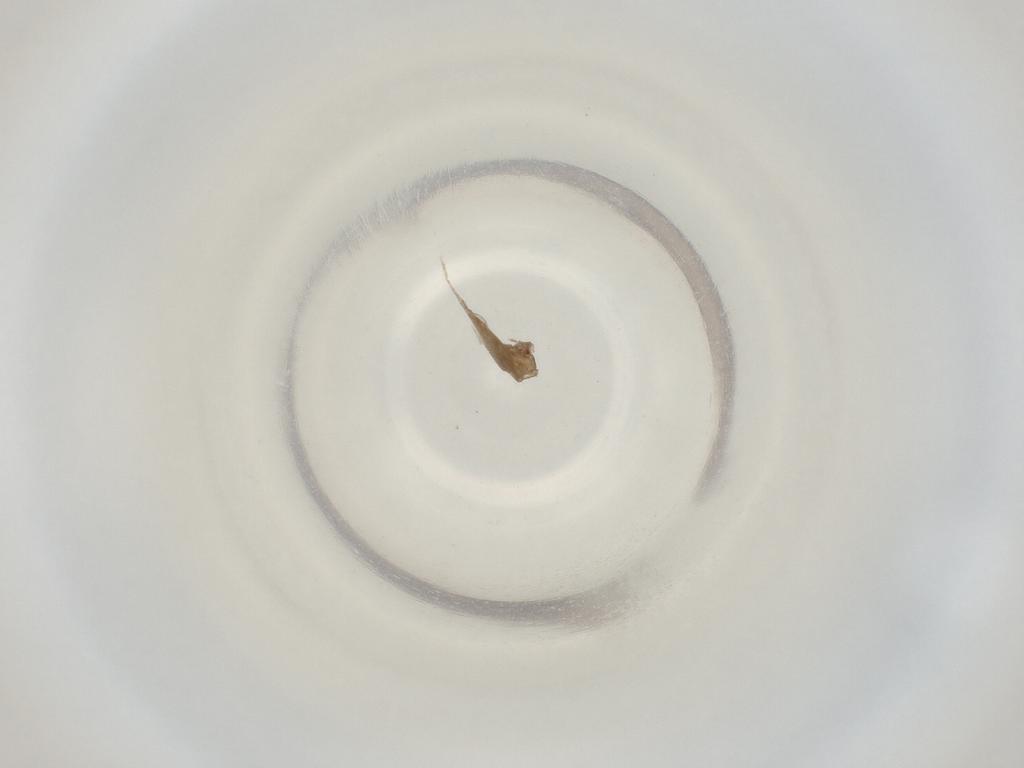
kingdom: Animalia
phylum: Arthropoda
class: Insecta
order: Diptera
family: Cecidomyiidae
